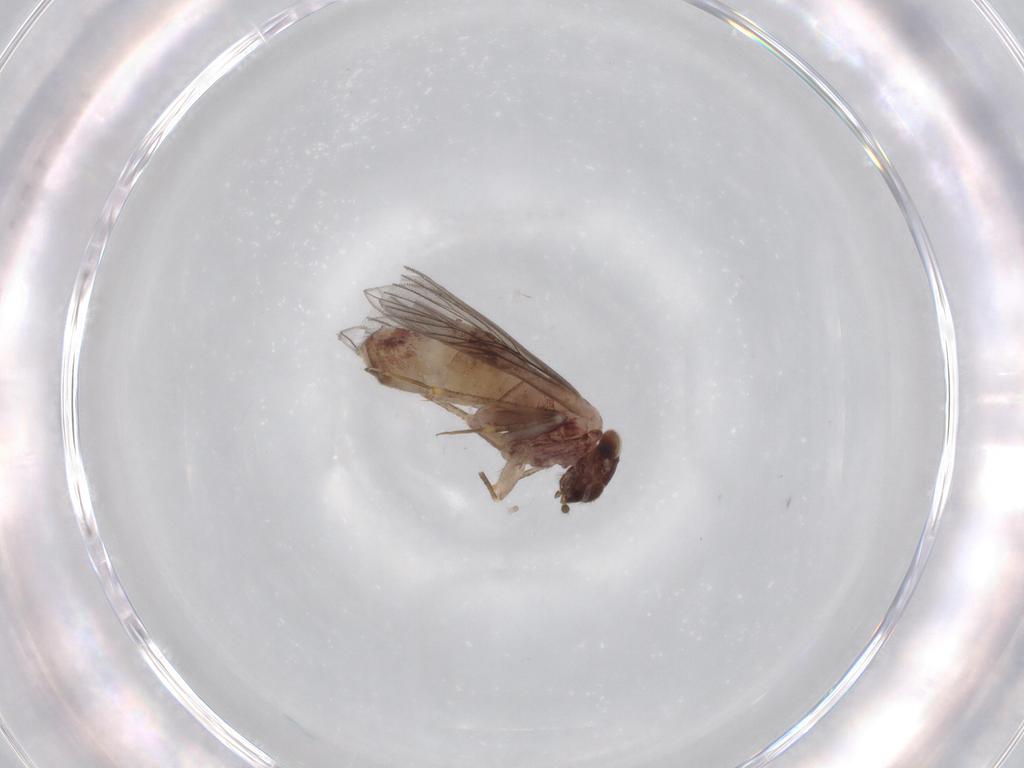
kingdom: Animalia
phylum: Arthropoda
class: Insecta
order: Psocodea
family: Lepidopsocidae
